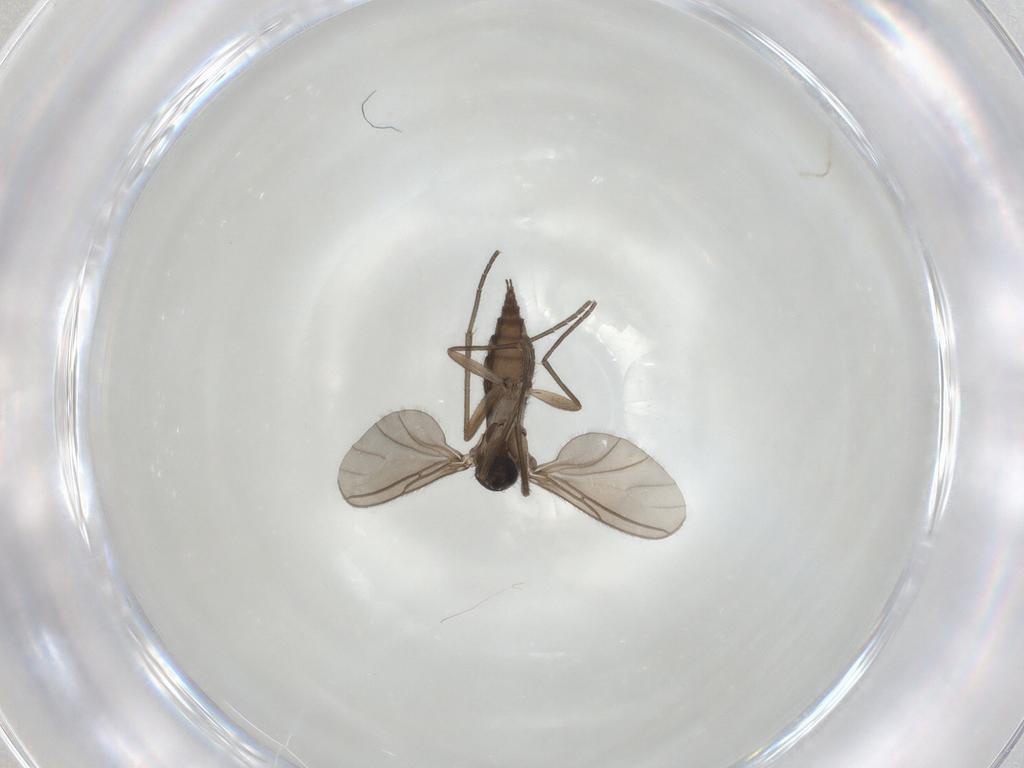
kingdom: Animalia
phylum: Arthropoda
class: Insecta
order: Diptera
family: Sciaridae
